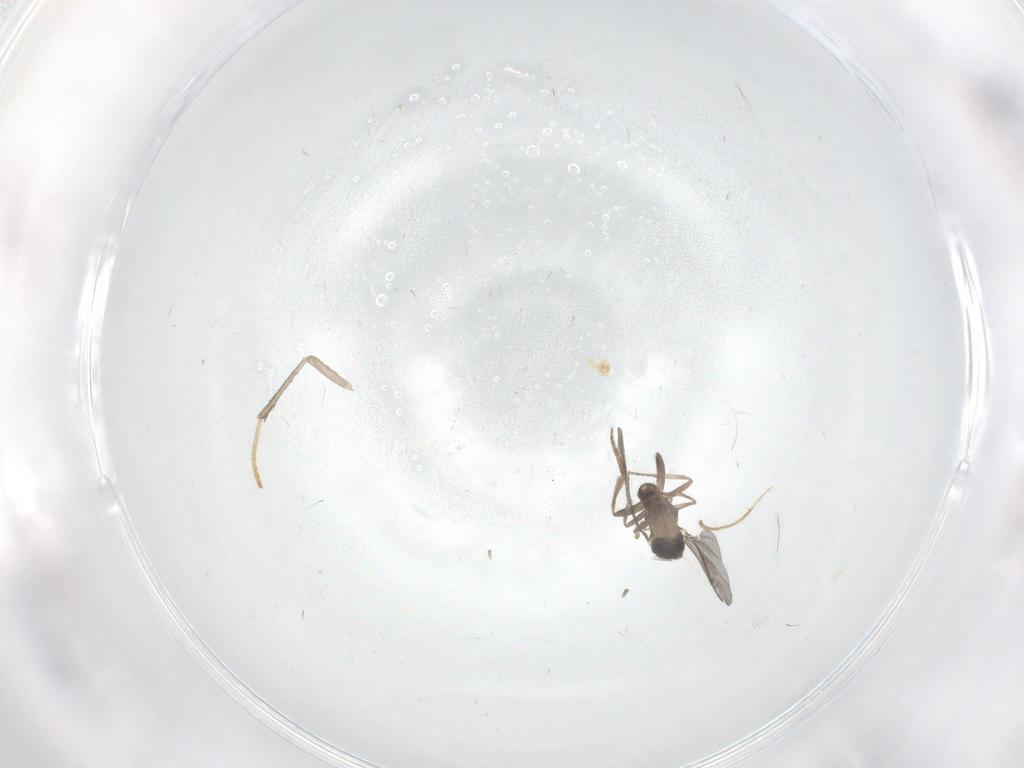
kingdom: Animalia
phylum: Arthropoda
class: Insecta
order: Diptera
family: Cecidomyiidae
